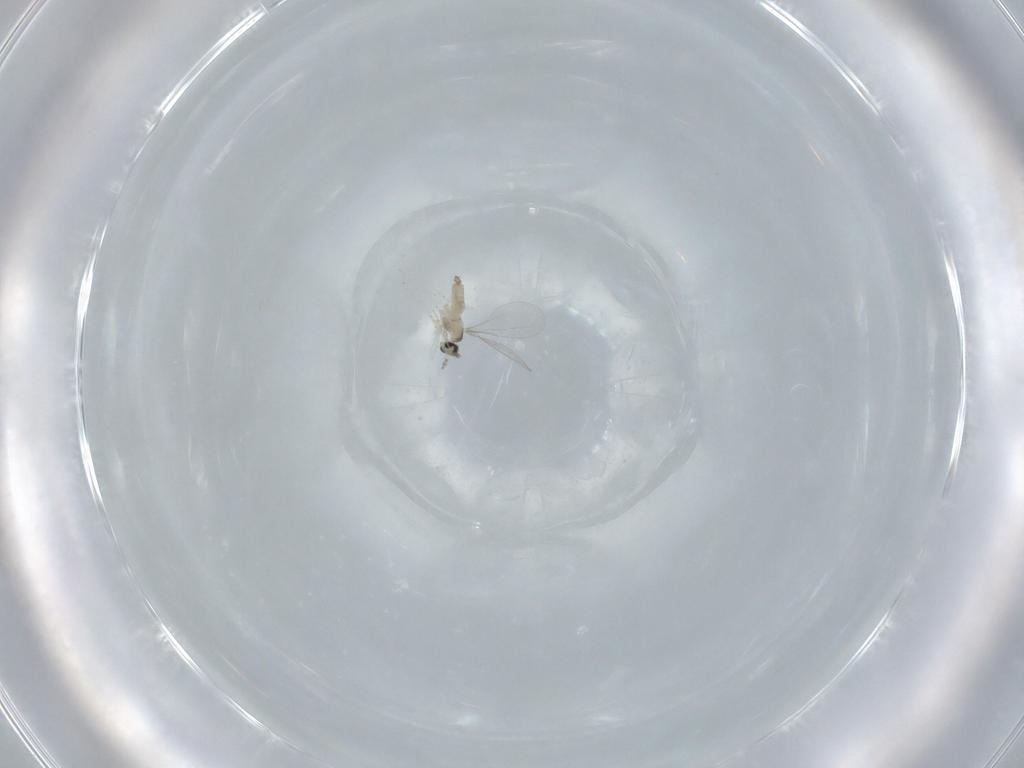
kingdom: Animalia
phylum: Arthropoda
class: Insecta
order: Diptera
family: Cecidomyiidae
